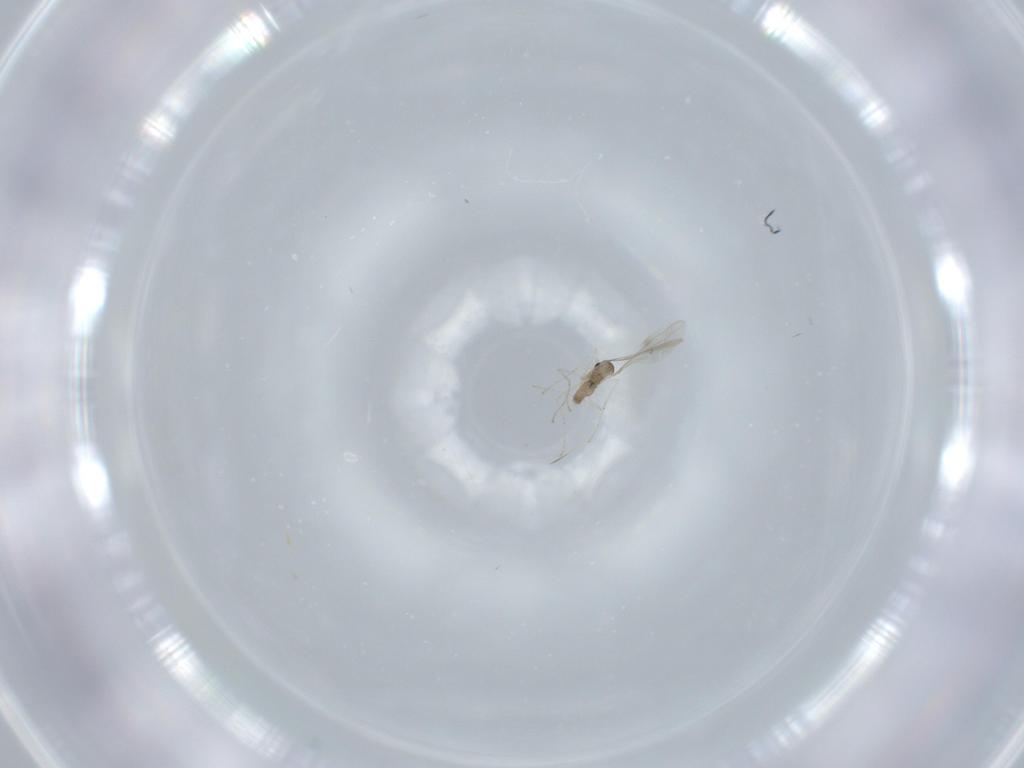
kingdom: Animalia
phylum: Arthropoda
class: Insecta
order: Diptera
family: Cecidomyiidae
